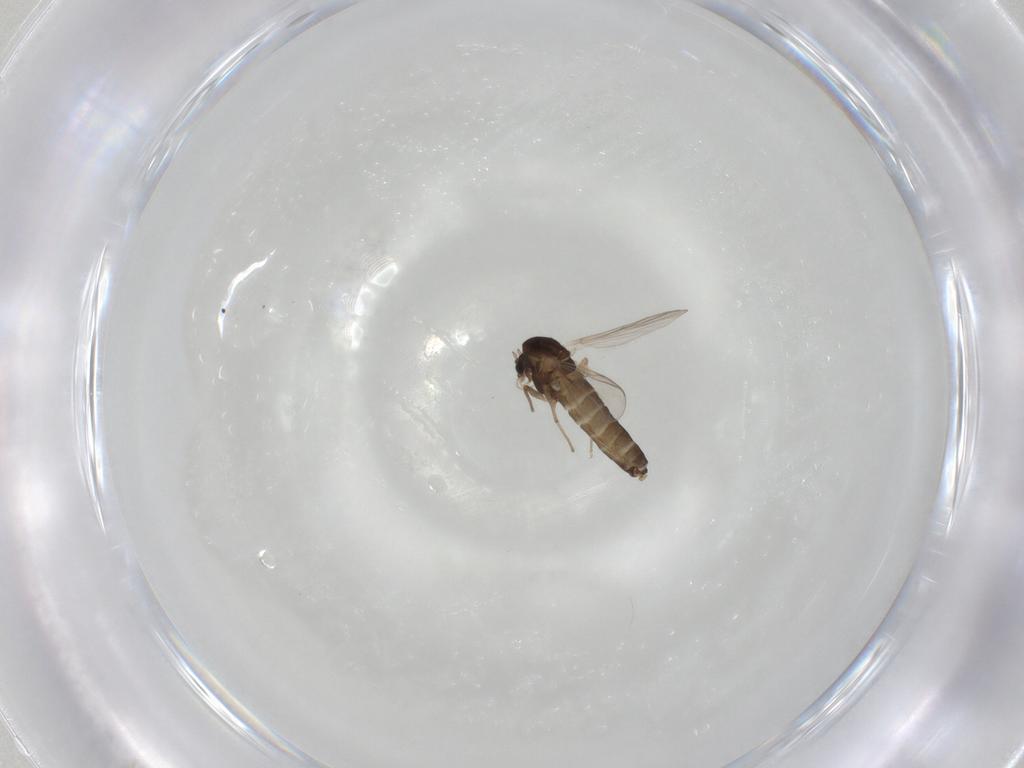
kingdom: Animalia
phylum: Arthropoda
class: Insecta
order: Diptera
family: Chironomidae
